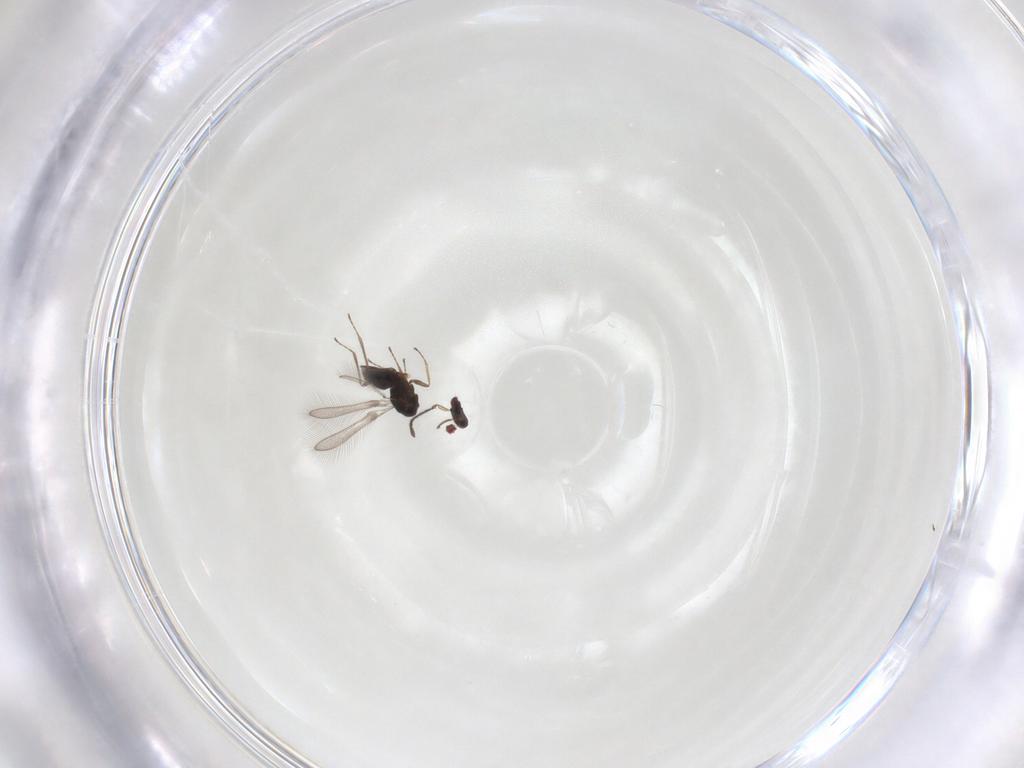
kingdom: Animalia
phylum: Arthropoda
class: Insecta
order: Hymenoptera
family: Mymaridae
